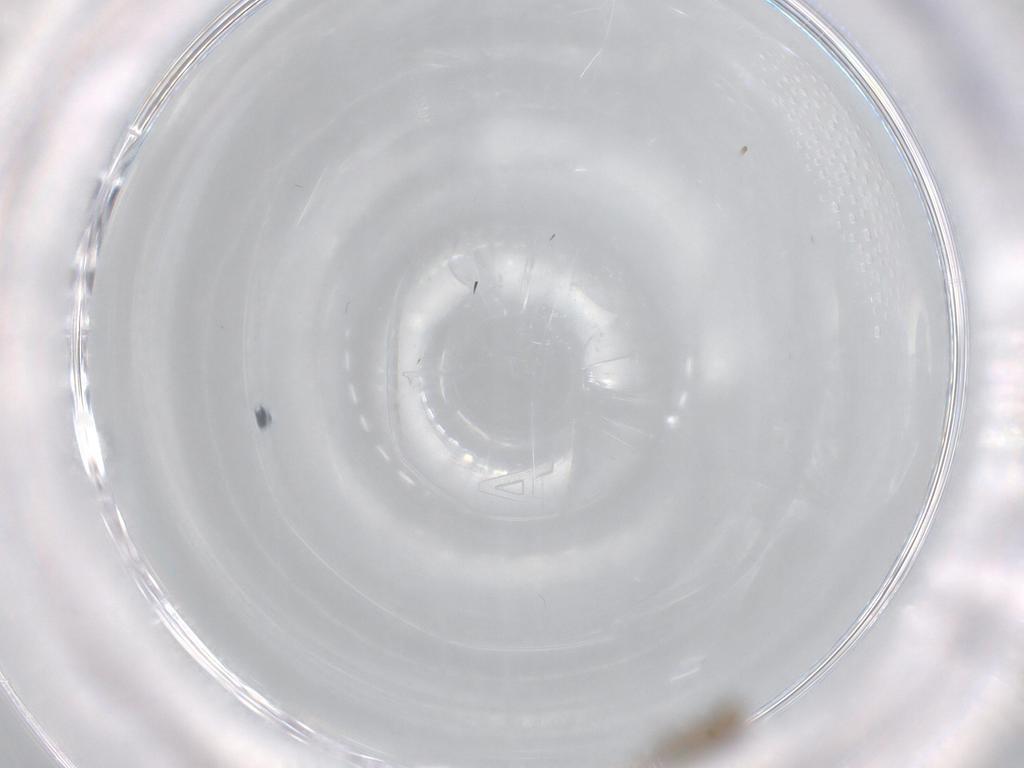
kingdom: Animalia
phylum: Arthropoda
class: Insecta
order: Diptera
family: Chironomidae
